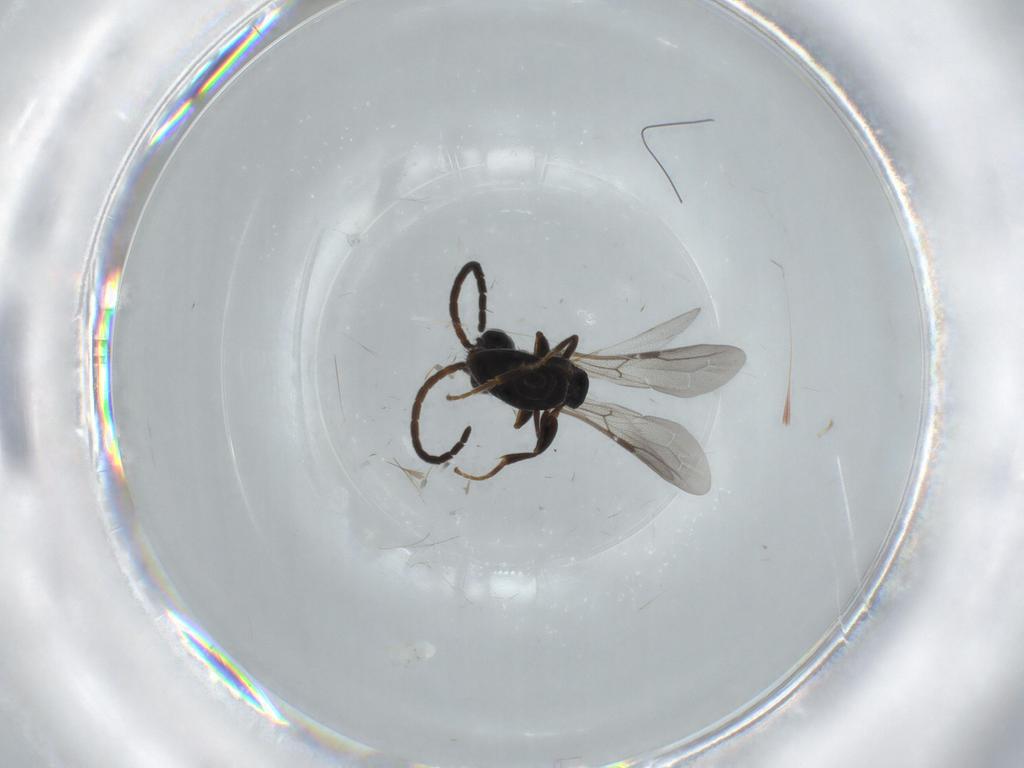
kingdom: Animalia
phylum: Arthropoda
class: Insecta
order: Hymenoptera
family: Bethylidae
